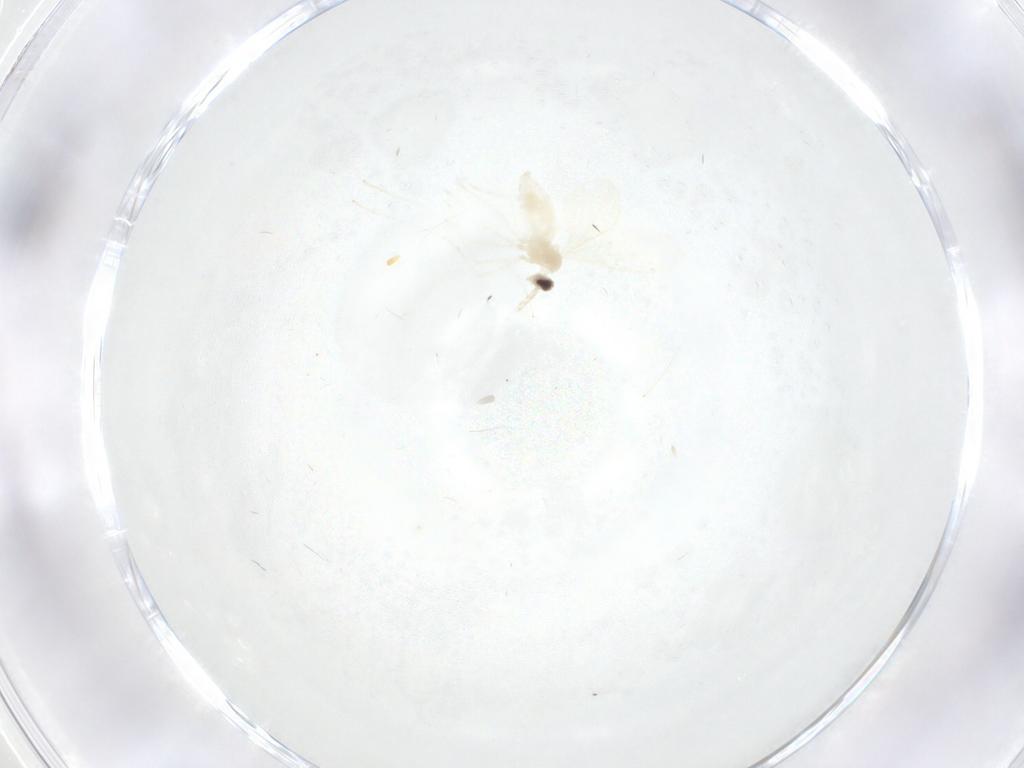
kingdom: Animalia
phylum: Arthropoda
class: Insecta
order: Diptera
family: Cecidomyiidae
